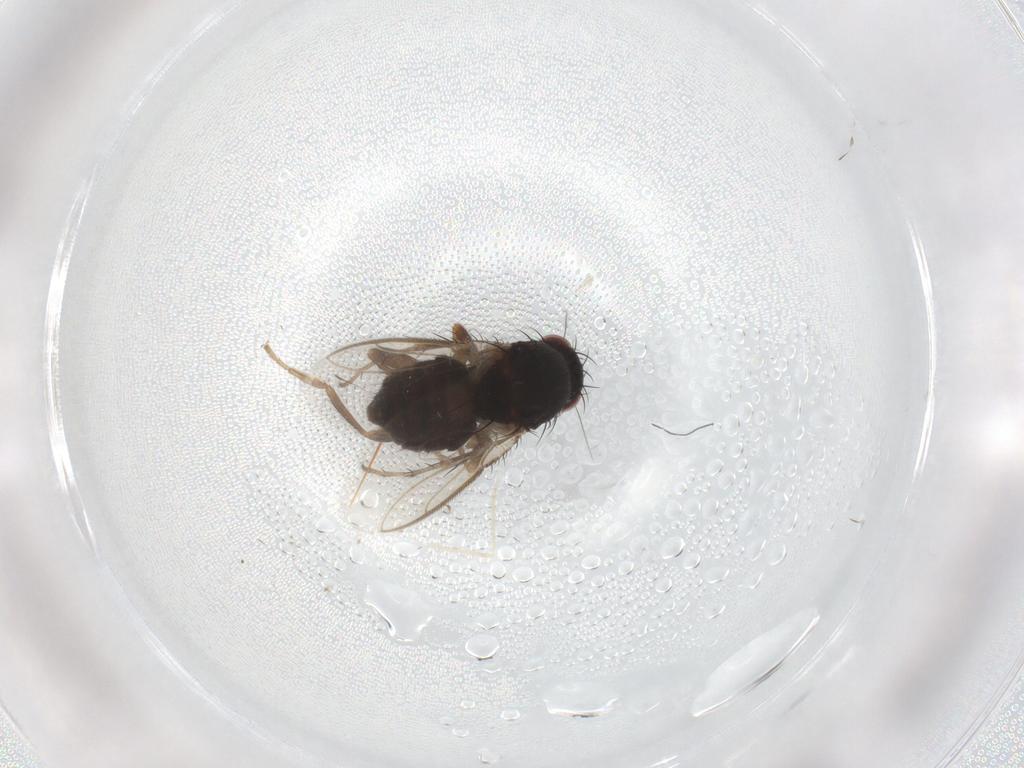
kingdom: Animalia
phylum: Arthropoda
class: Insecta
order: Diptera
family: Sphaeroceridae
